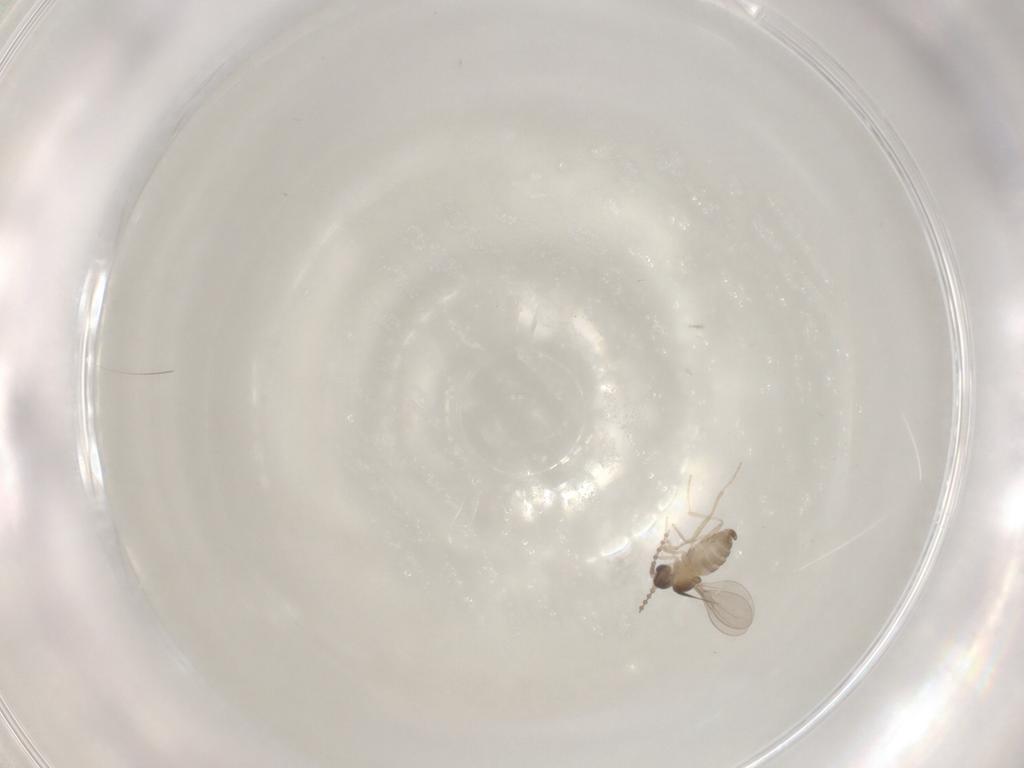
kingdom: Animalia
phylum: Arthropoda
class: Insecta
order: Diptera
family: Cecidomyiidae
